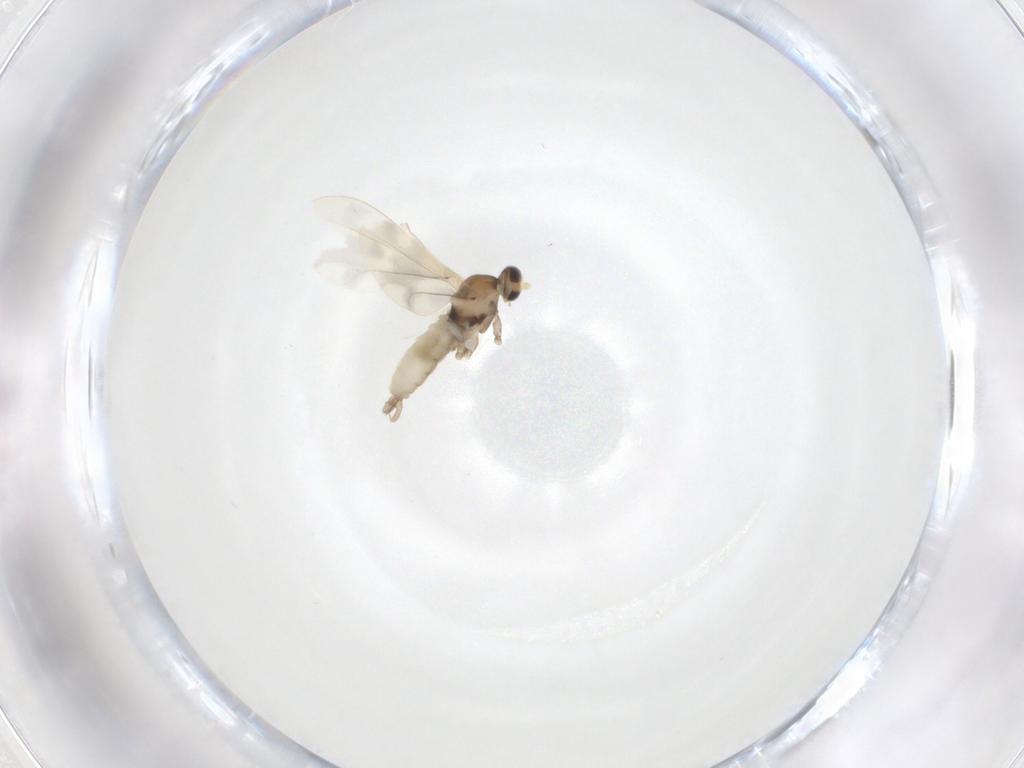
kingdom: Animalia
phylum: Arthropoda
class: Insecta
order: Diptera
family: Cecidomyiidae
